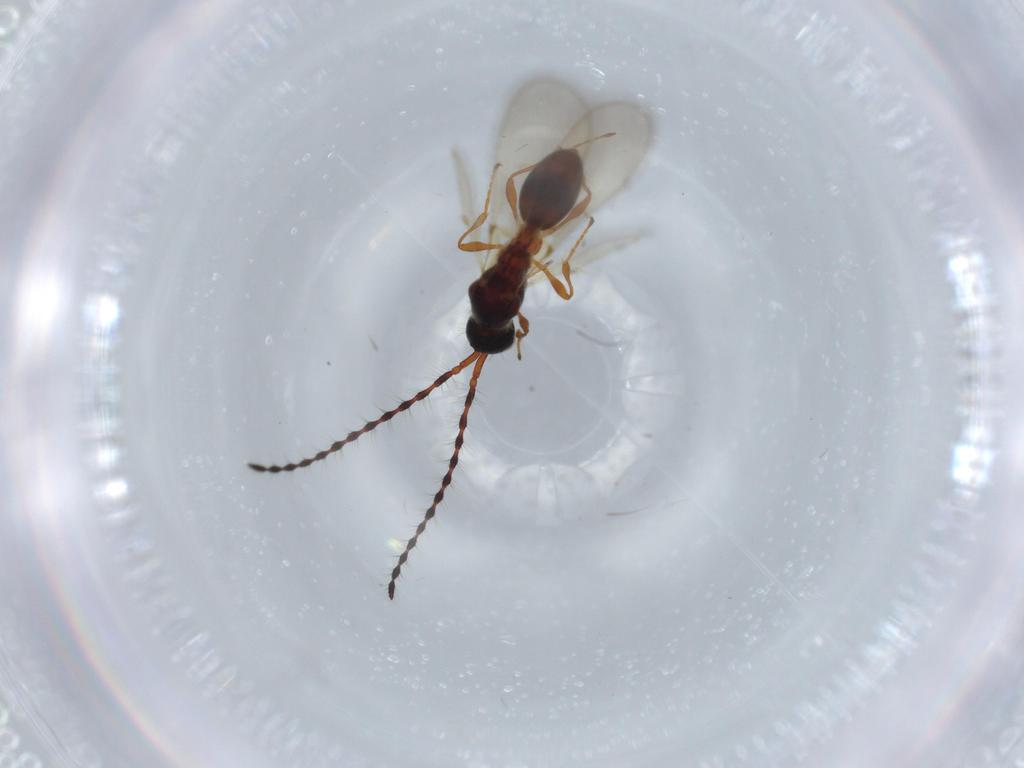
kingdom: Animalia
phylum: Arthropoda
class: Insecta
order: Hymenoptera
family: Diapriidae
